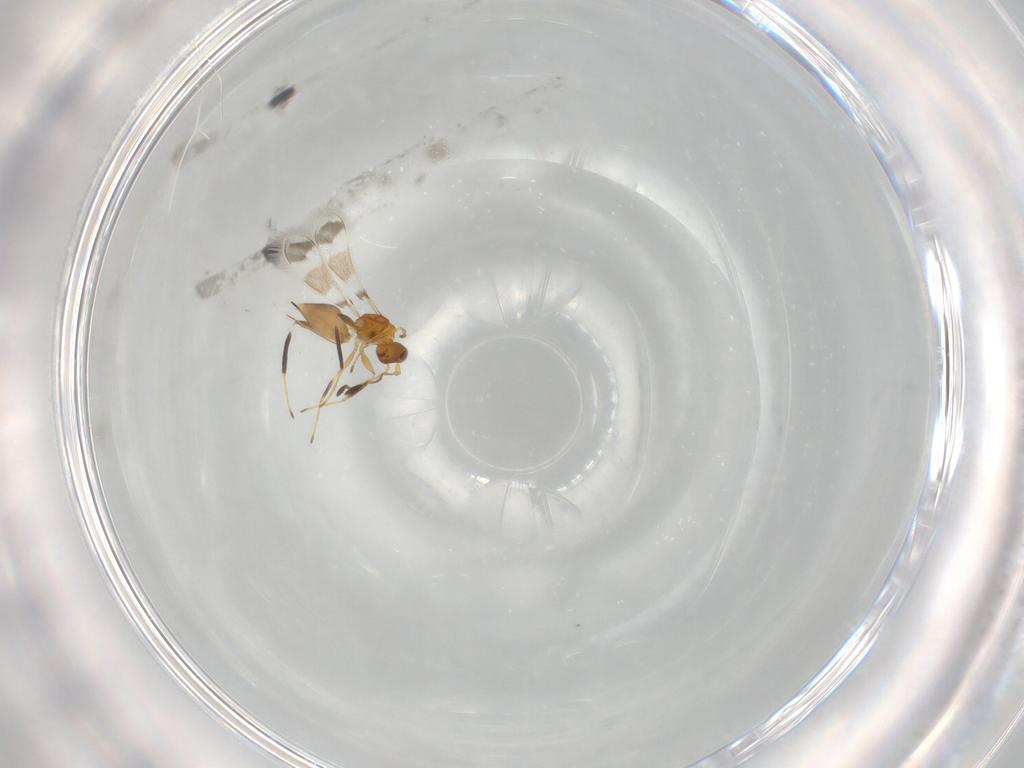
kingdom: Animalia
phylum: Arthropoda
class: Insecta
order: Hymenoptera
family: Mymaridae
